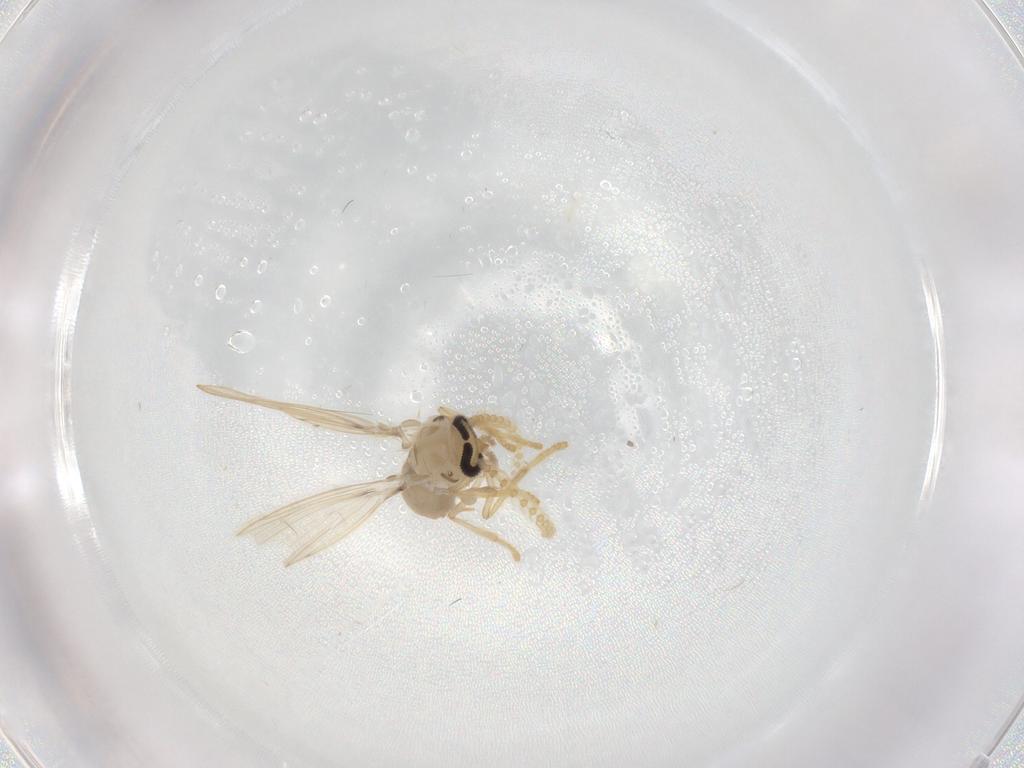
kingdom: Animalia
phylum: Arthropoda
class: Insecta
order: Diptera
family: Psychodidae
